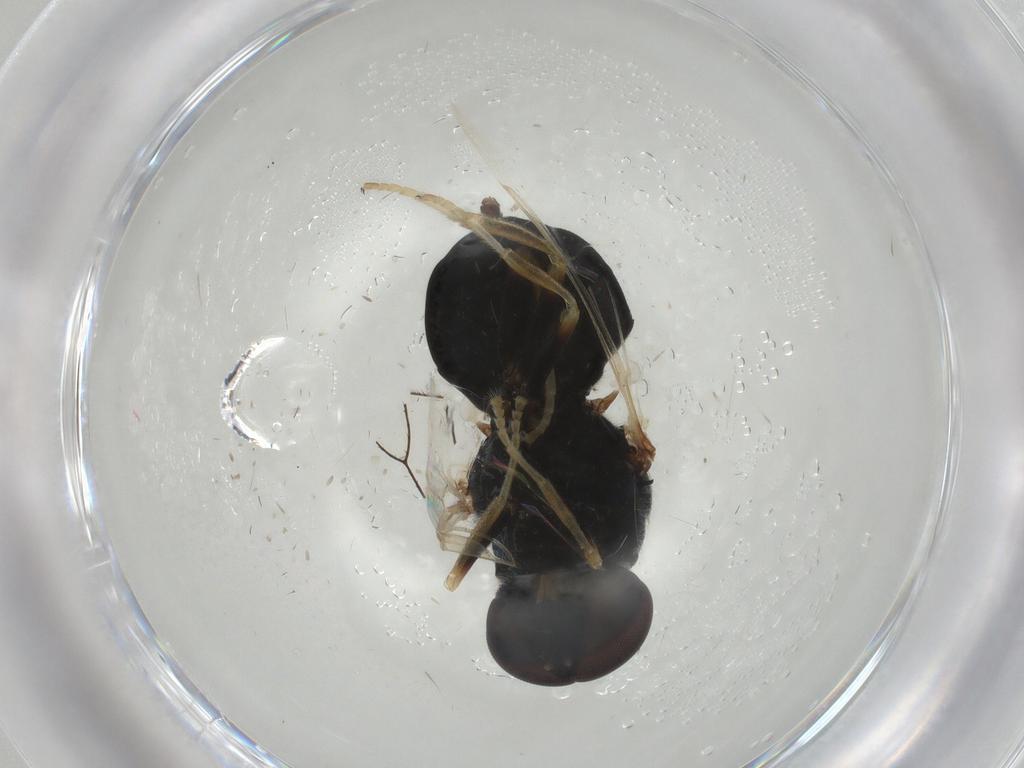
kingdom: Animalia
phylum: Arthropoda
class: Insecta
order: Diptera
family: Stratiomyidae
